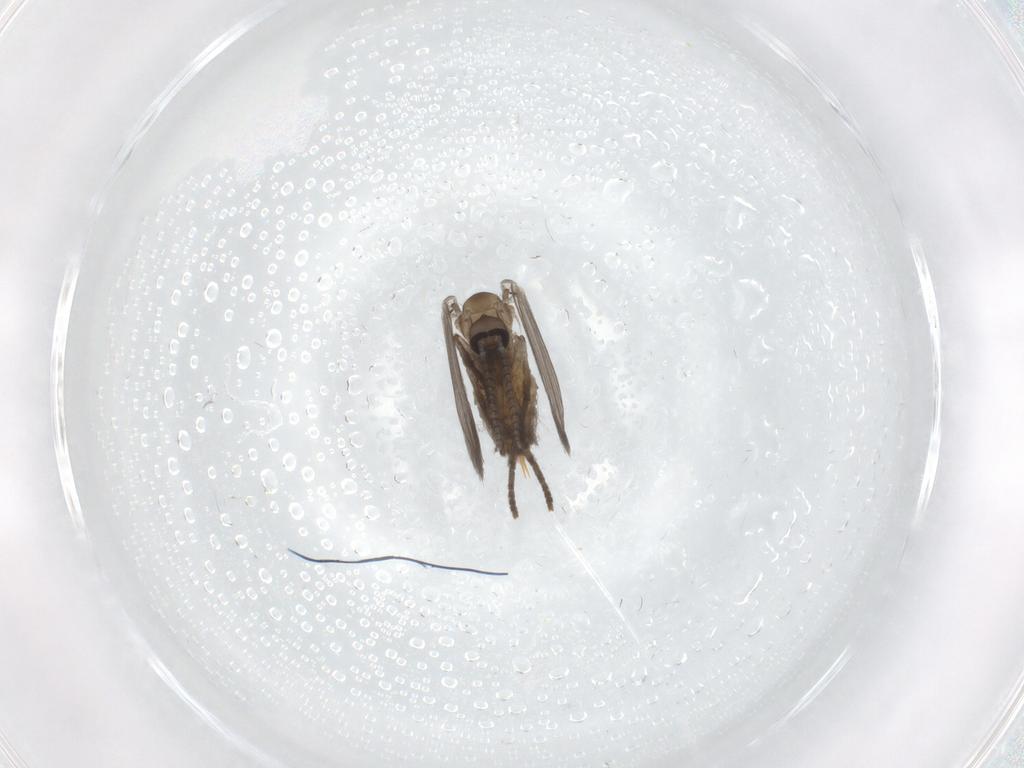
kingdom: Animalia
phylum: Arthropoda
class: Insecta
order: Diptera
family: Psychodidae
